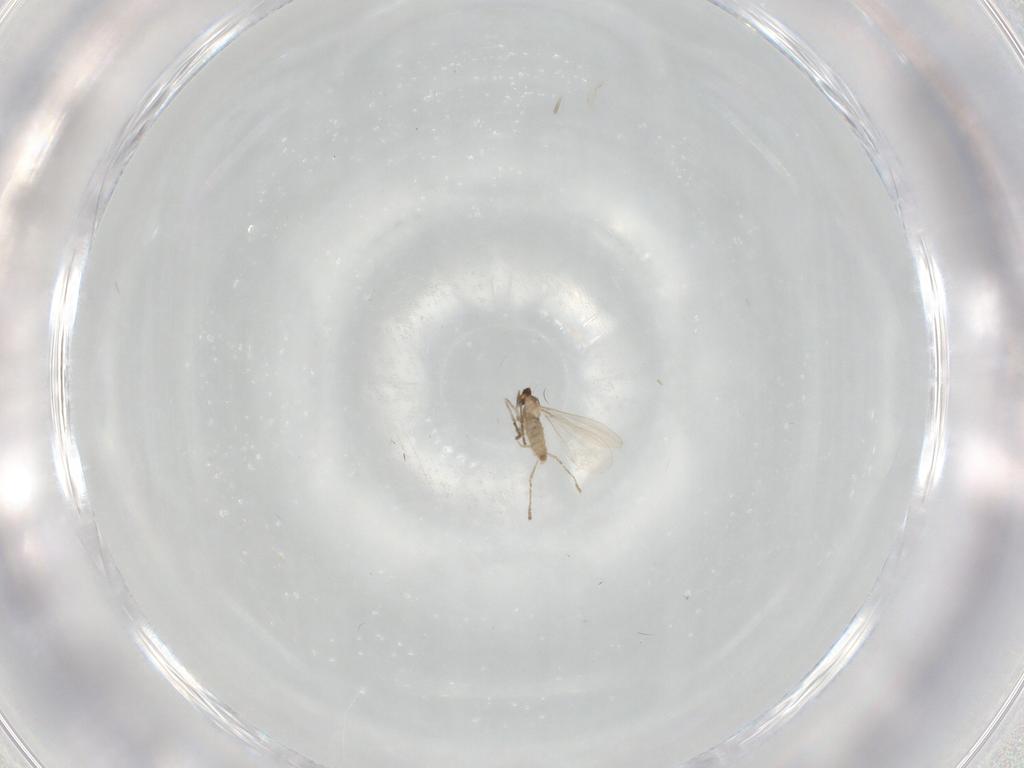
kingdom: Animalia
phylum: Arthropoda
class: Insecta
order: Diptera
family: Cecidomyiidae
